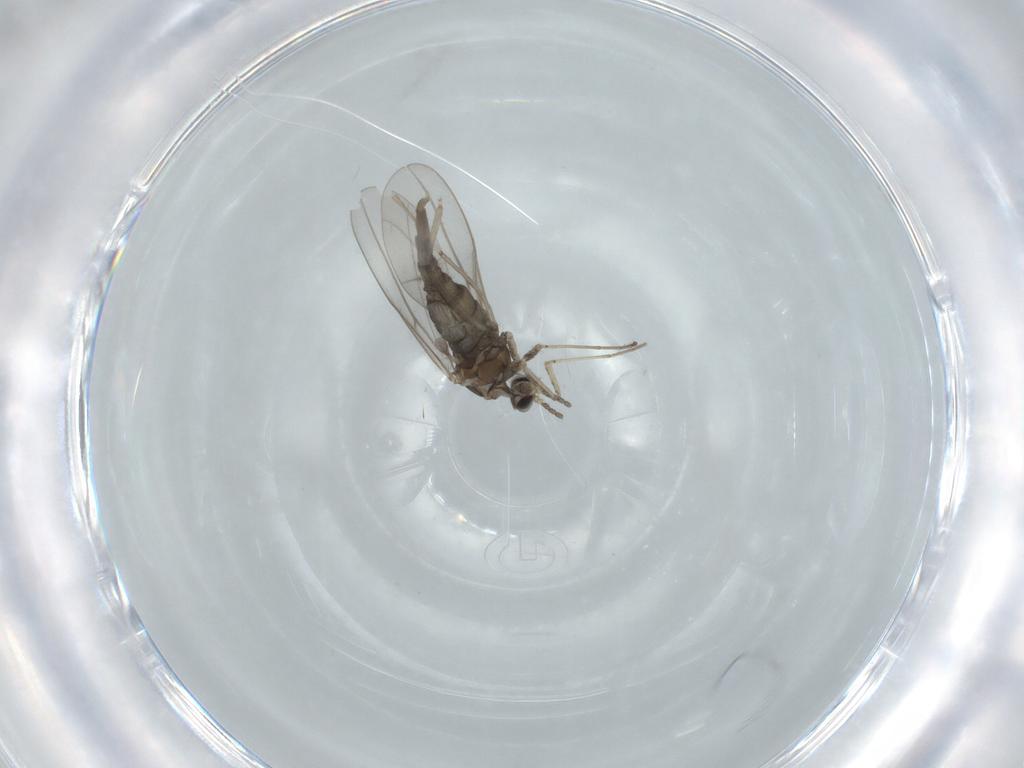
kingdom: Animalia
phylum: Arthropoda
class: Insecta
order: Diptera
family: Cecidomyiidae
